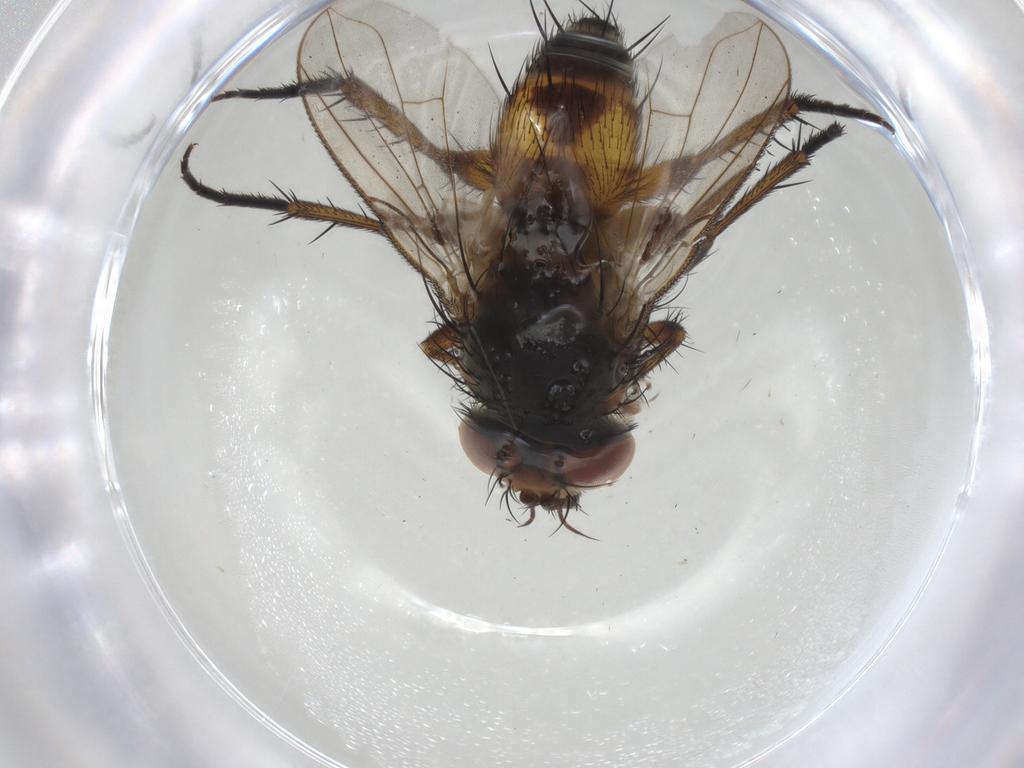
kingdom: Animalia
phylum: Arthropoda
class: Insecta
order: Diptera
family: Tachinidae
